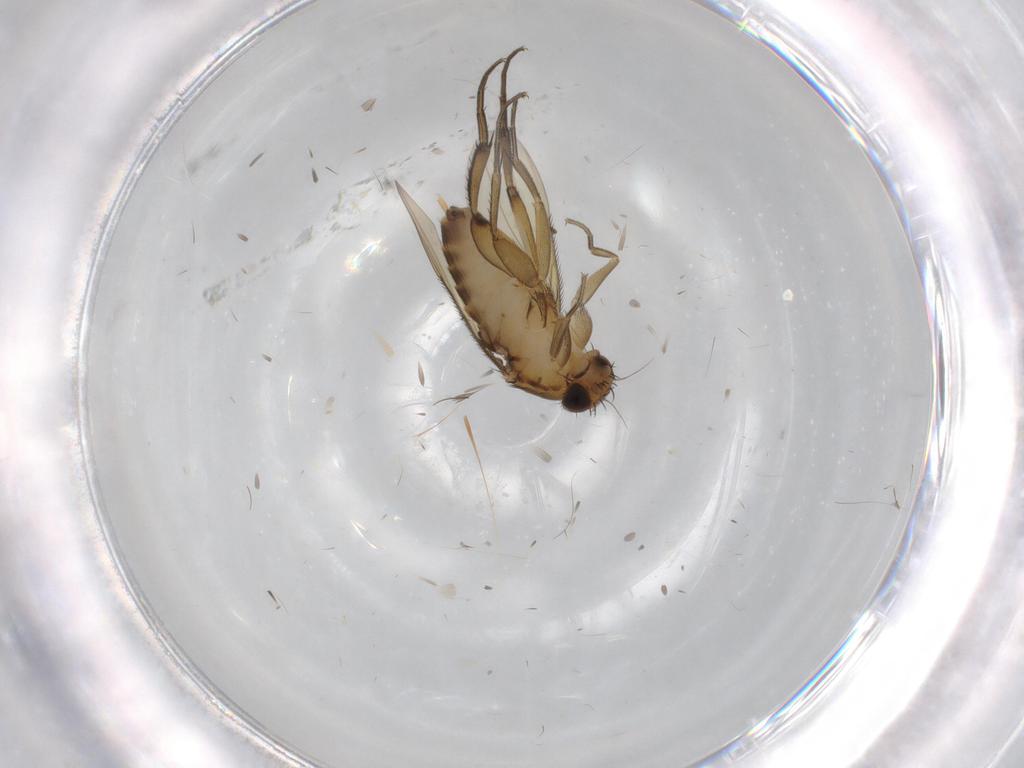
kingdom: Animalia
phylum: Arthropoda
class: Insecta
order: Diptera
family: Phoridae
